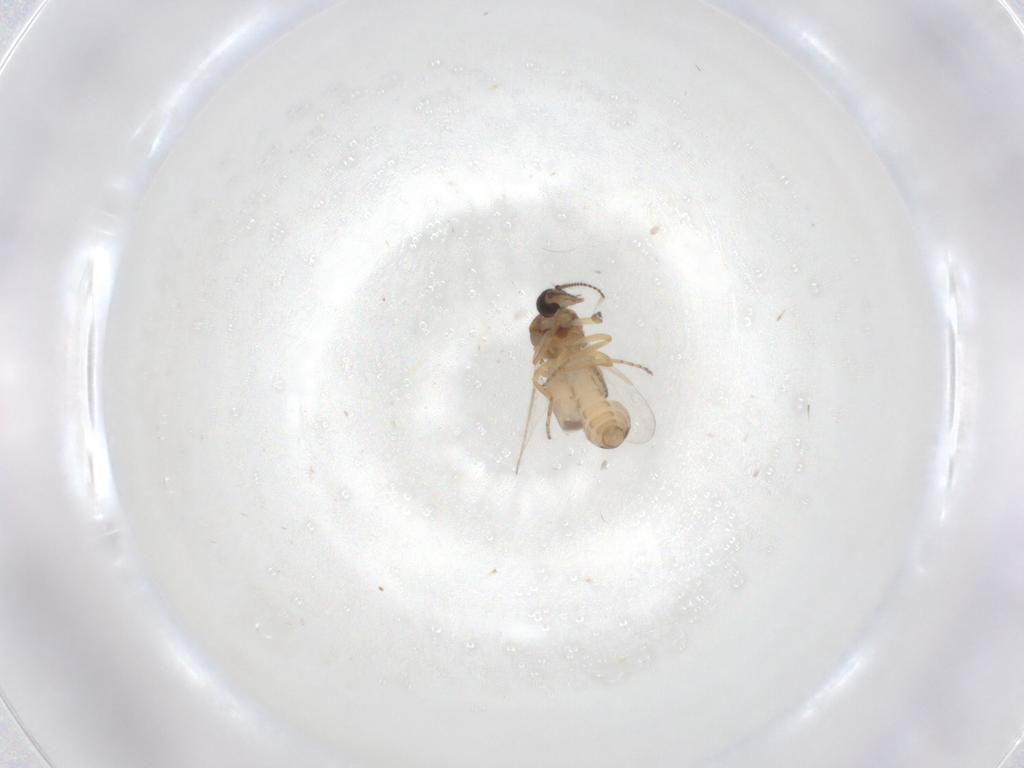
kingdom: Animalia
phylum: Arthropoda
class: Insecta
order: Diptera
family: Ceratopogonidae
